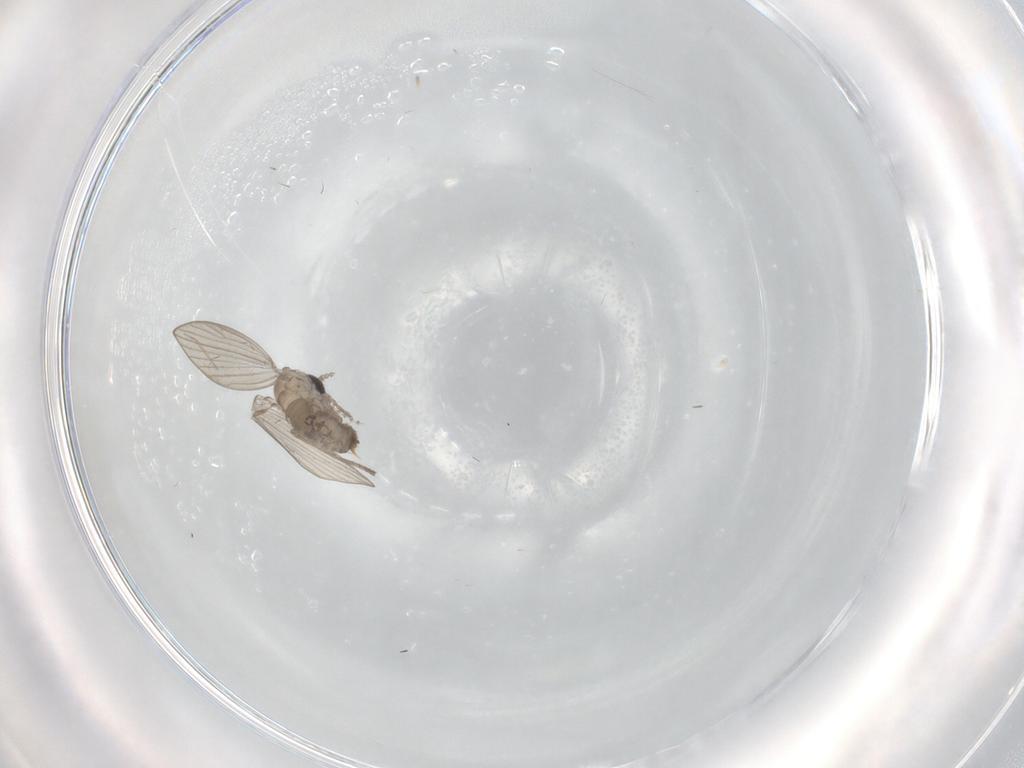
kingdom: Animalia
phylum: Arthropoda
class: Insecta
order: Diptera
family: Psychodidae
